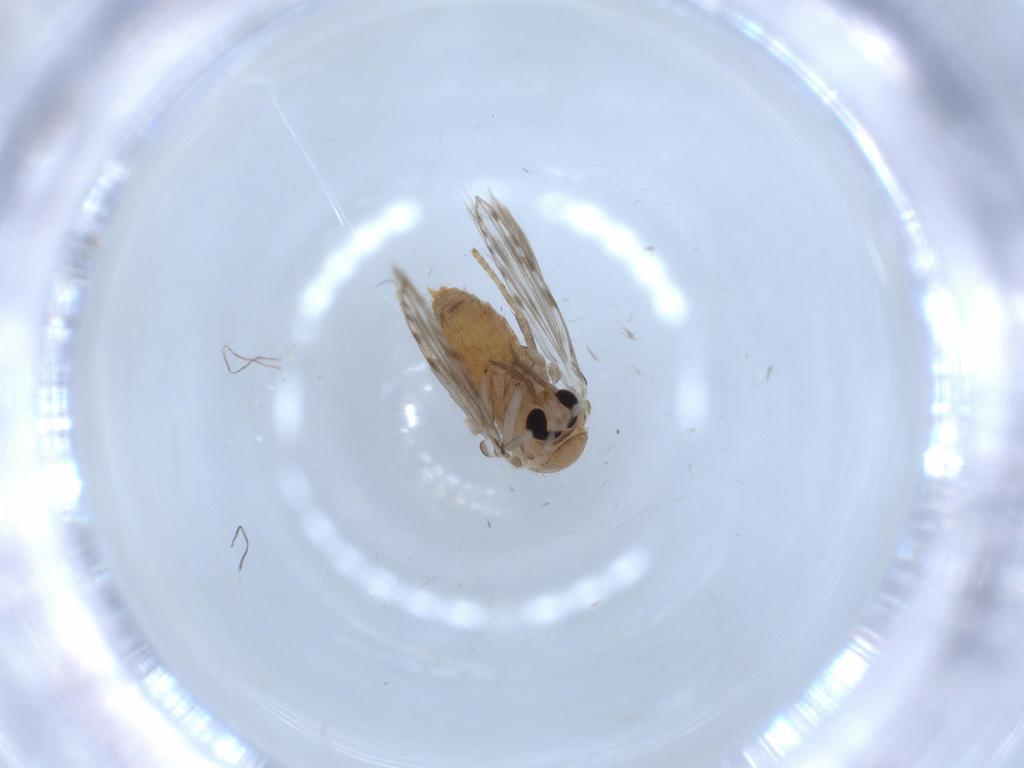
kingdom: Animalia
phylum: Arthropoda
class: Insecta
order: Diptera
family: Psychodidae
